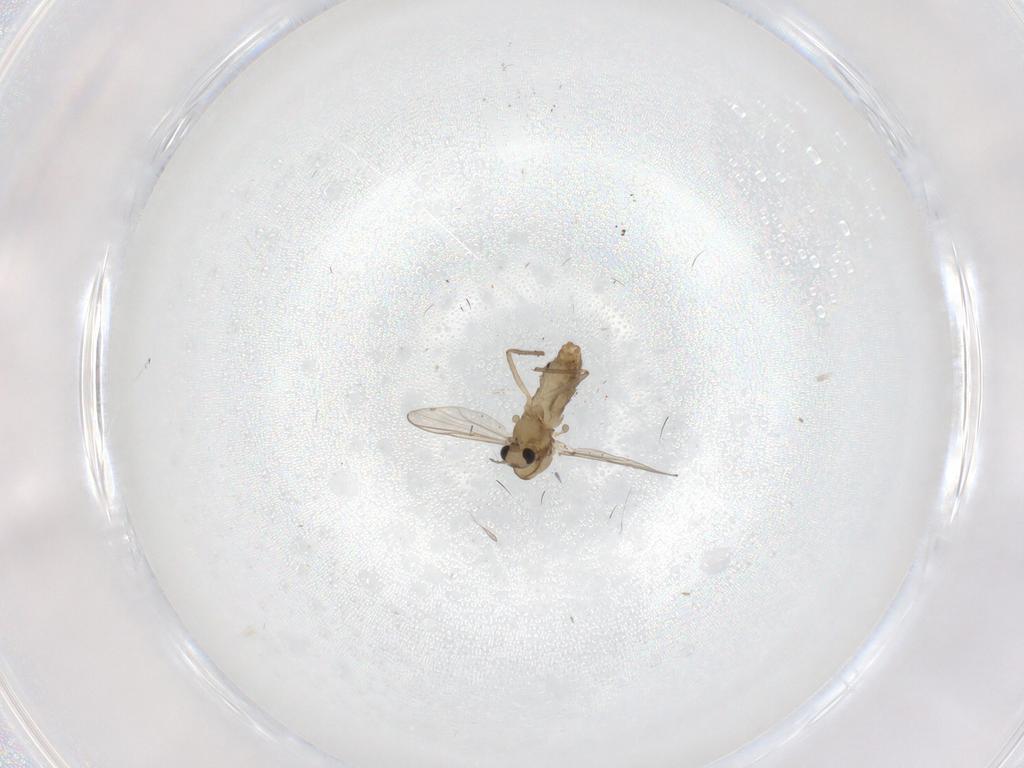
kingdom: Animalia
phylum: Arthropoda
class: Insecta
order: Diptera
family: Chironomidae
